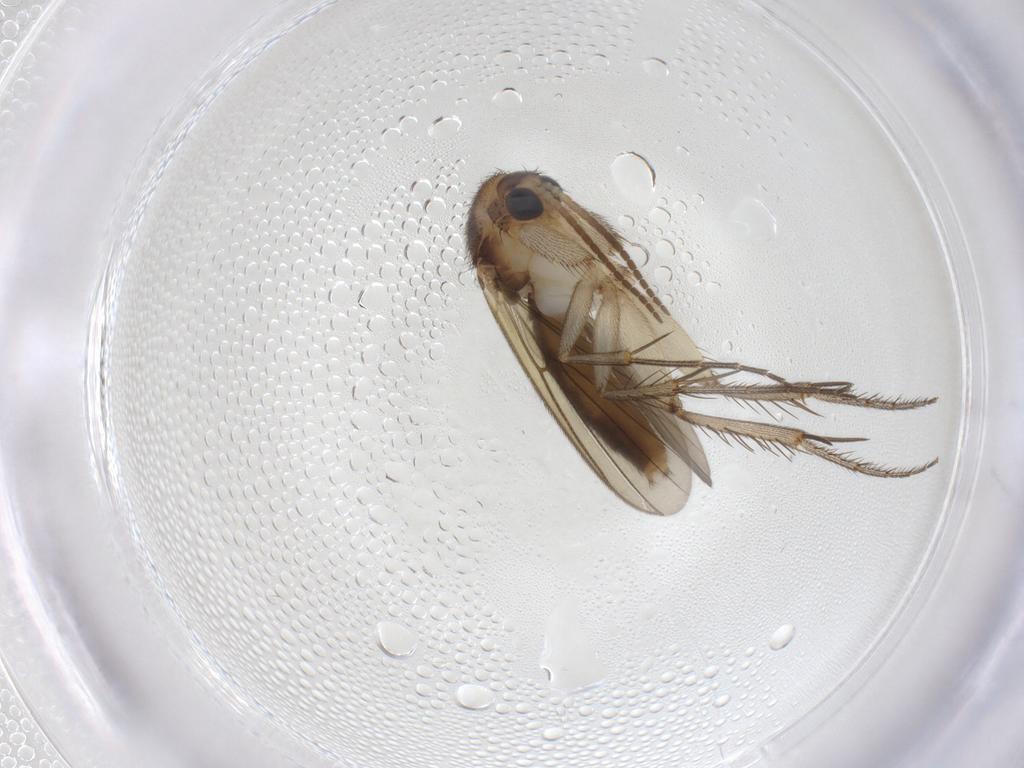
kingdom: Animalia
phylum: Arthropoda
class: Insecta
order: Diptera
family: Mycetophilidae
